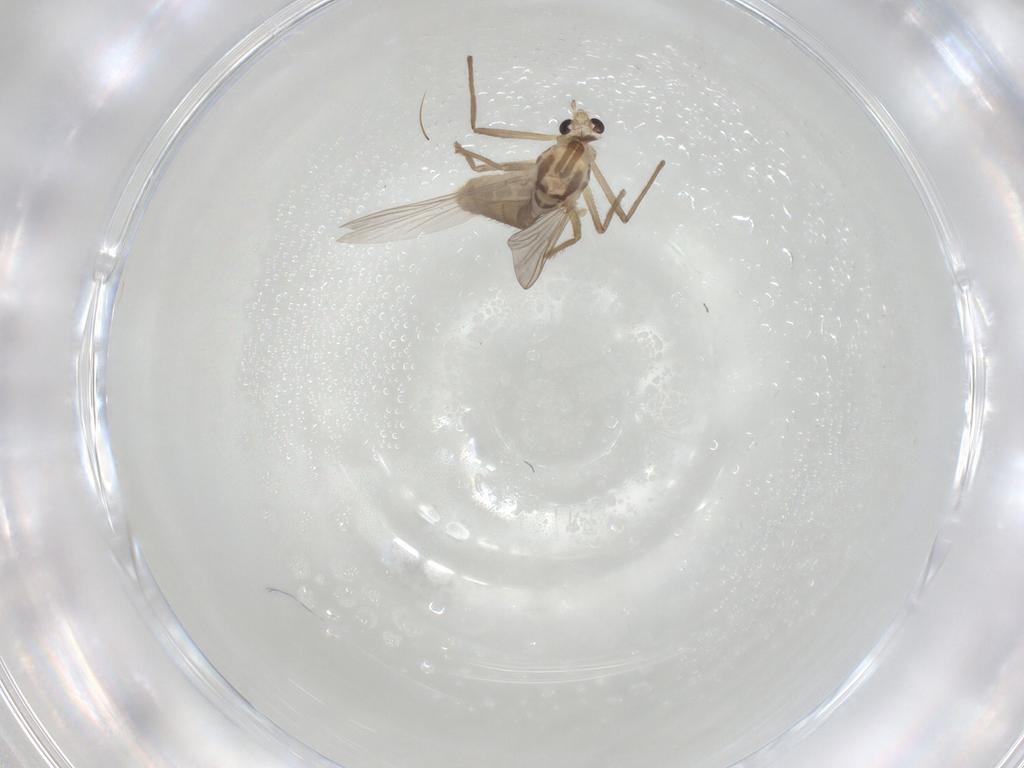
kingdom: Animalia
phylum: Arthropoda
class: Insecta
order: Diptera
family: Chironomidae
